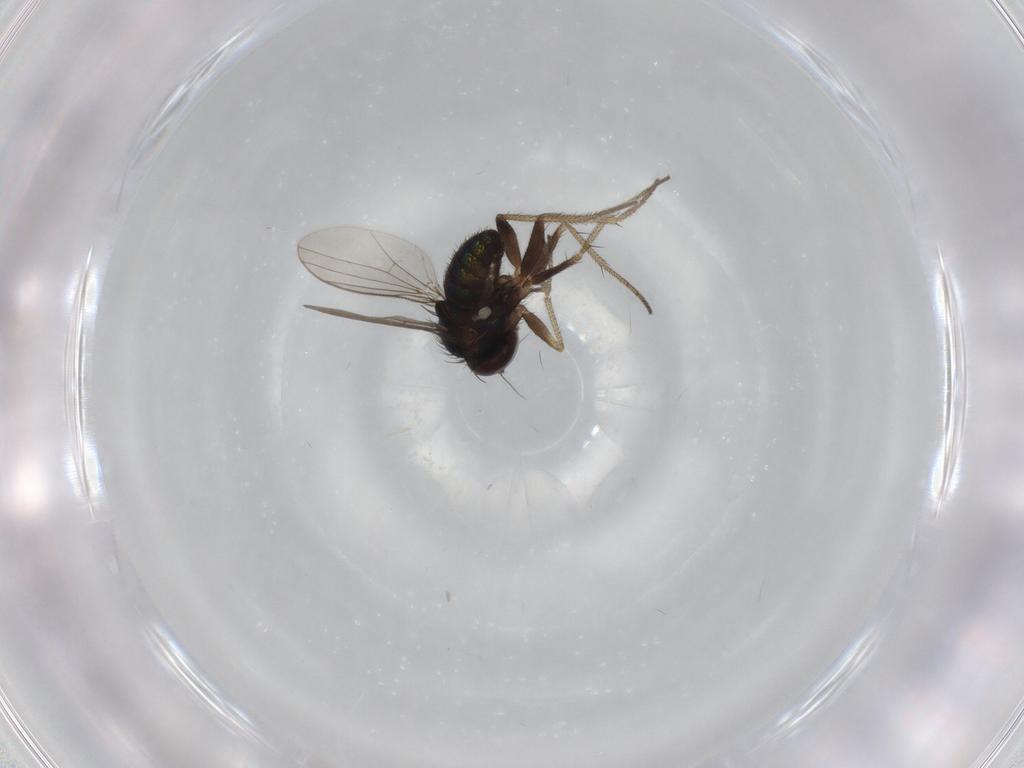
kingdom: Animalia
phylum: Arthropoda
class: Insecta
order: Diptera
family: Chaoboridae
